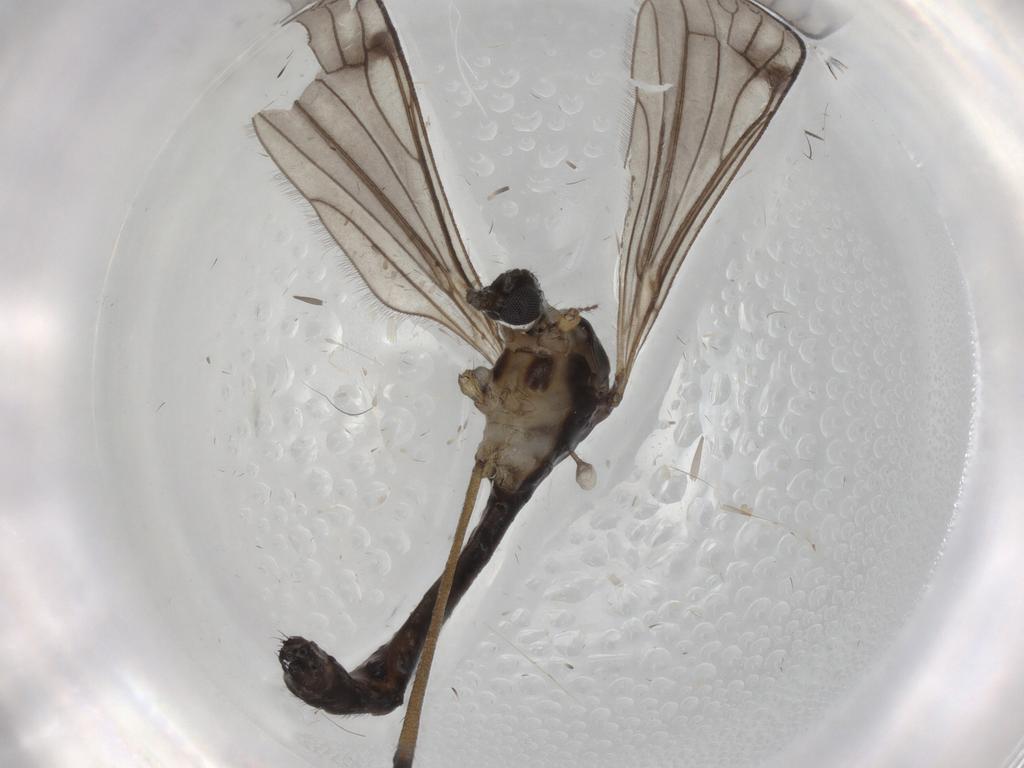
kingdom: Animalia
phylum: Arthropoda
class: Insecta
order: Diptera
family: Limoniidae
